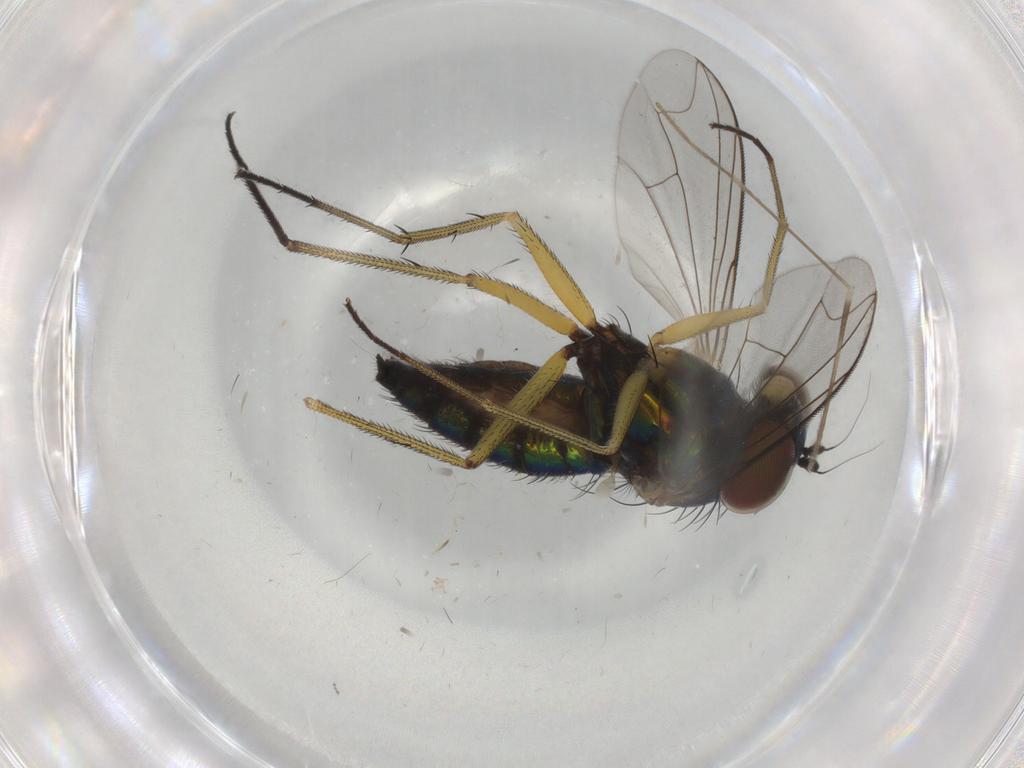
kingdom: Animalia
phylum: Arthropoda
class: Insecta
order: Diptera
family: Dolichopodidae
